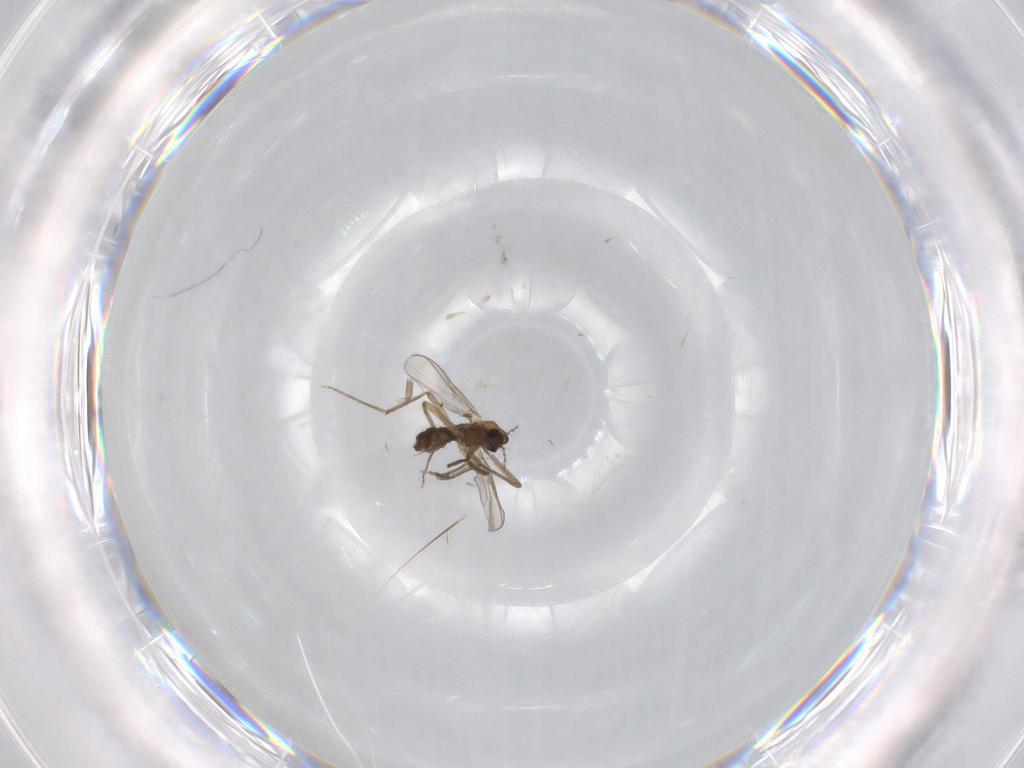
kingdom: Animalia
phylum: Arthropoda
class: Insecta
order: Diptera
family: Chironomidae
